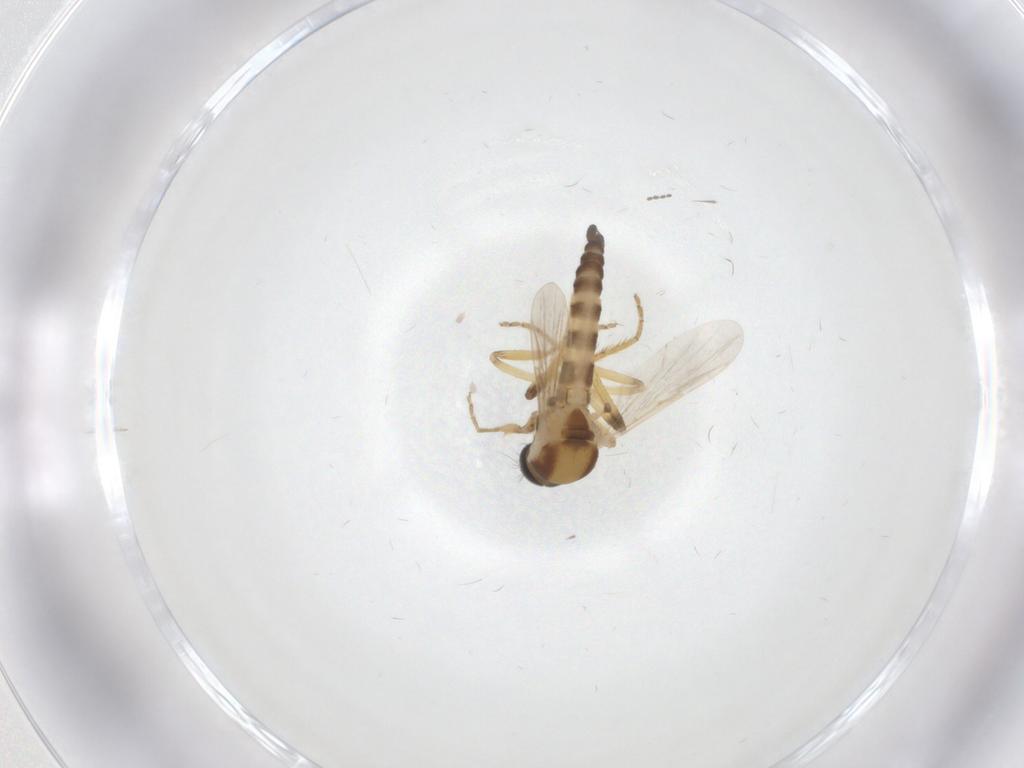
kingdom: Animalia
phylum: Arthropoda
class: Insecta
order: Diptera
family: Ceratopogonidae
